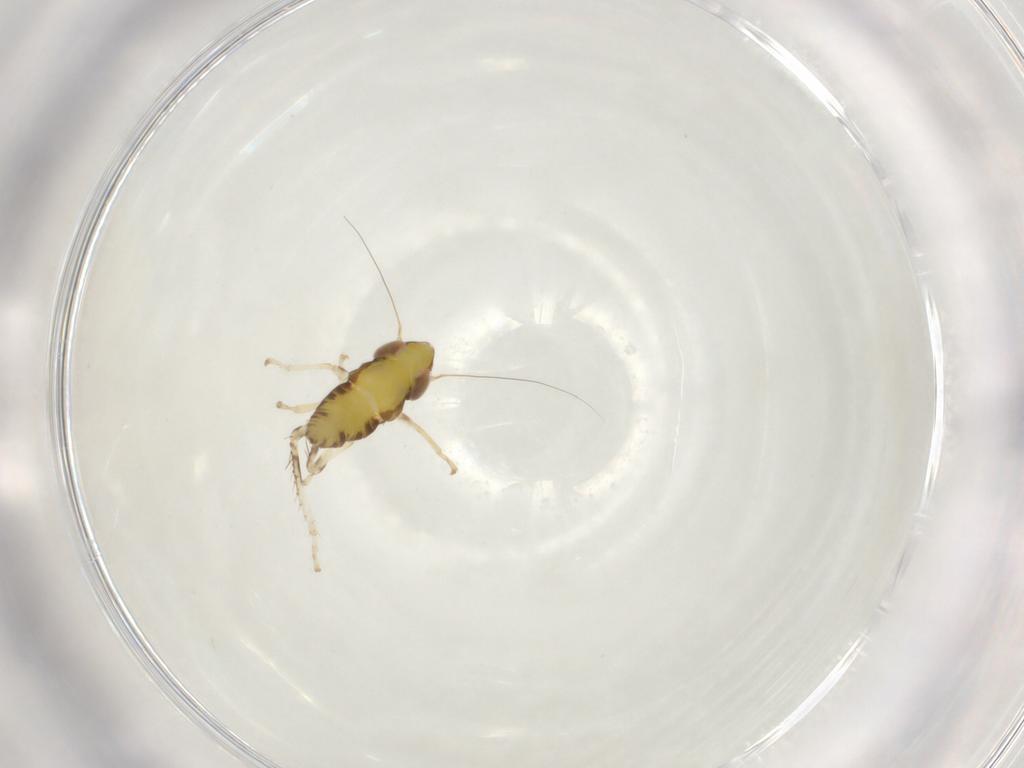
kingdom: Animalia
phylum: Arthropoda
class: Insecta
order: Hemiptera
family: Cicadellidae
